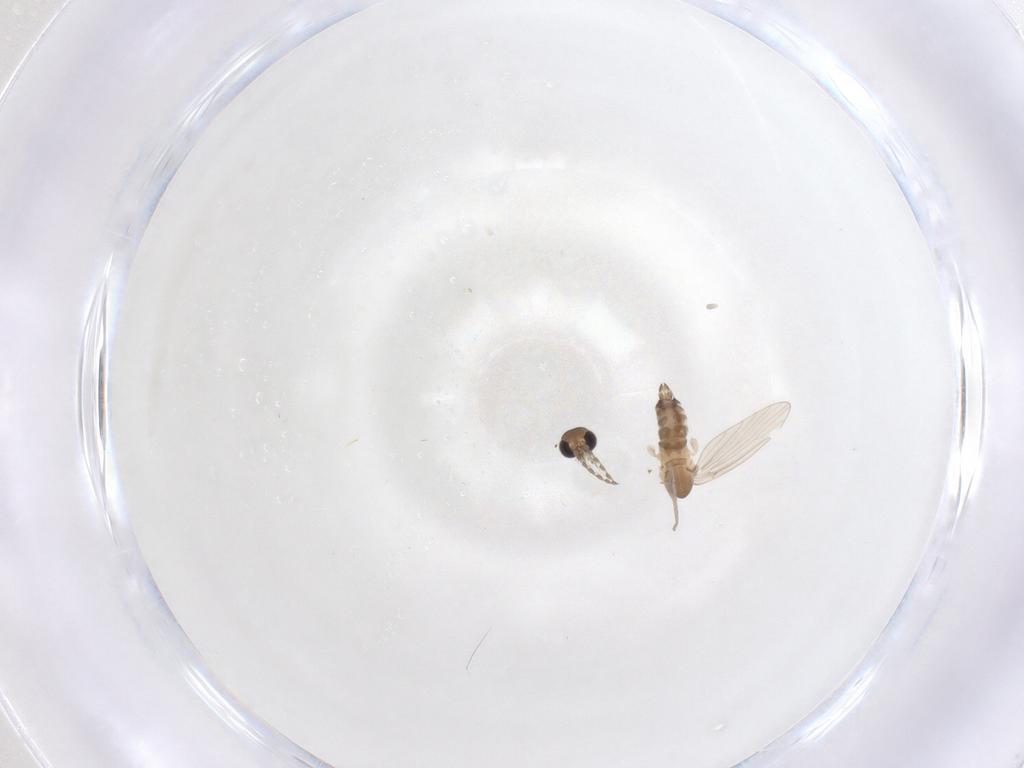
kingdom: Animalia
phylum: Arthropoda
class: Insecta
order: Diptera
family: Psychodidae
